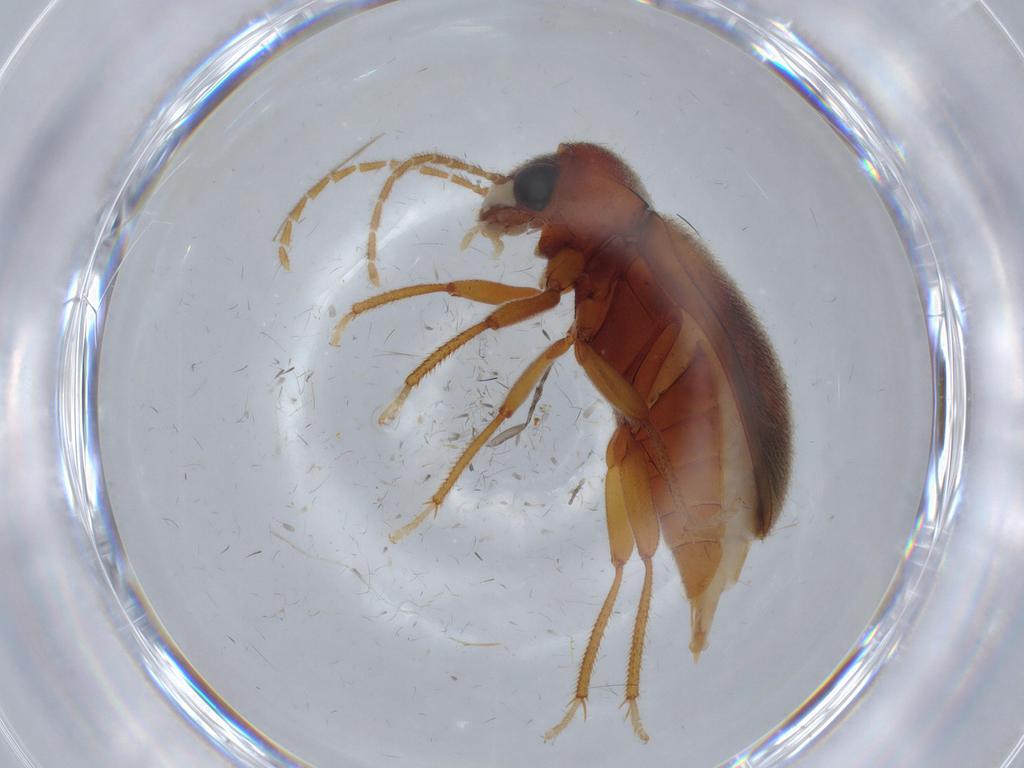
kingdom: Animalia
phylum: Arthropoda
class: Insecta
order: Coleoptera
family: Ptilodactylidae
